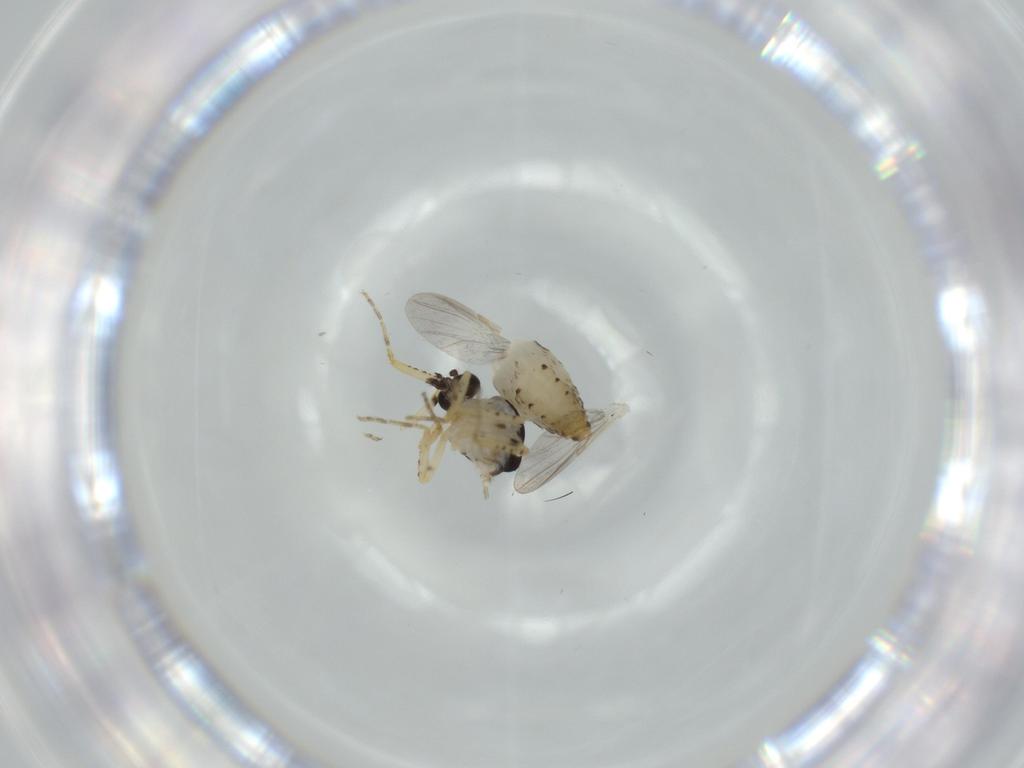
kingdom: Animalia
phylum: Arthropoda
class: Insecta
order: Diptera
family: Ceratopogonidae
